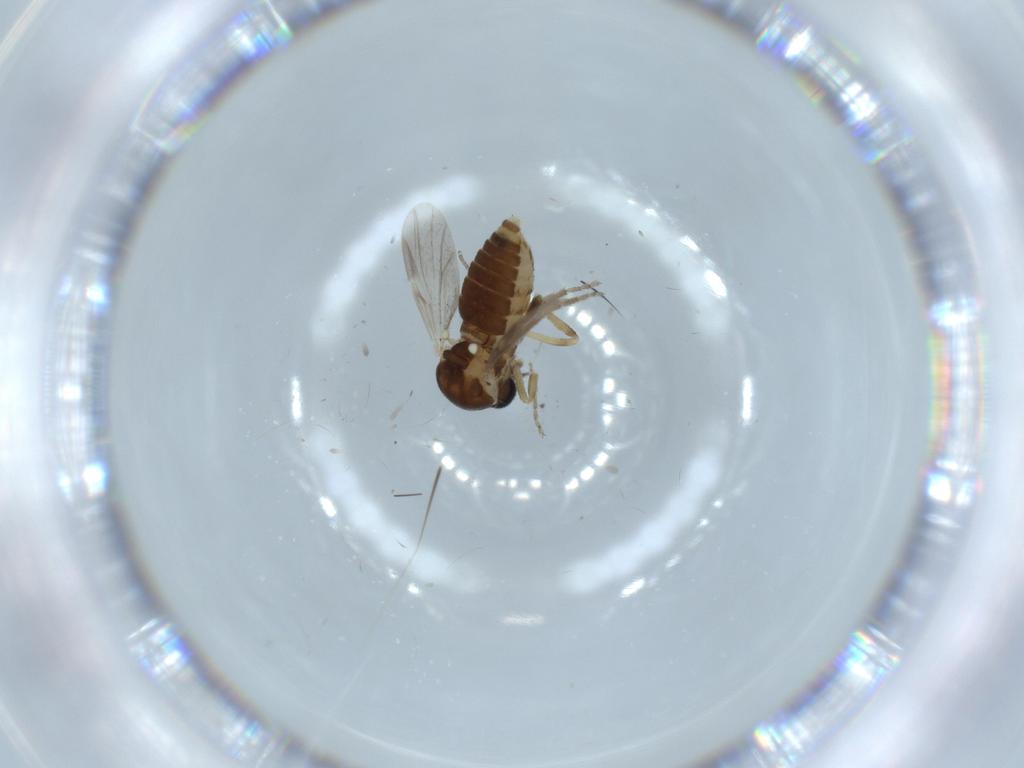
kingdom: Animalia
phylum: Arthropoda
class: Insecta
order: Diptera
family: Ceratopogonidae
